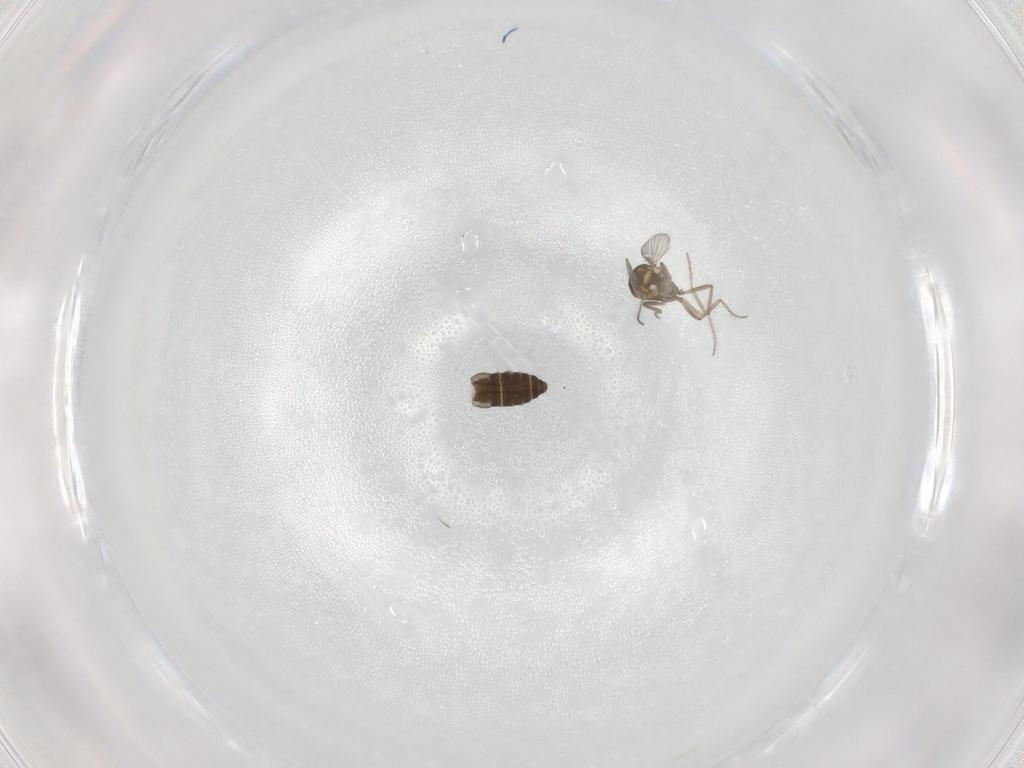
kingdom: Animalia
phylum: Arthropoda
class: Insecta
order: Diptera
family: Ceratopogonidae
